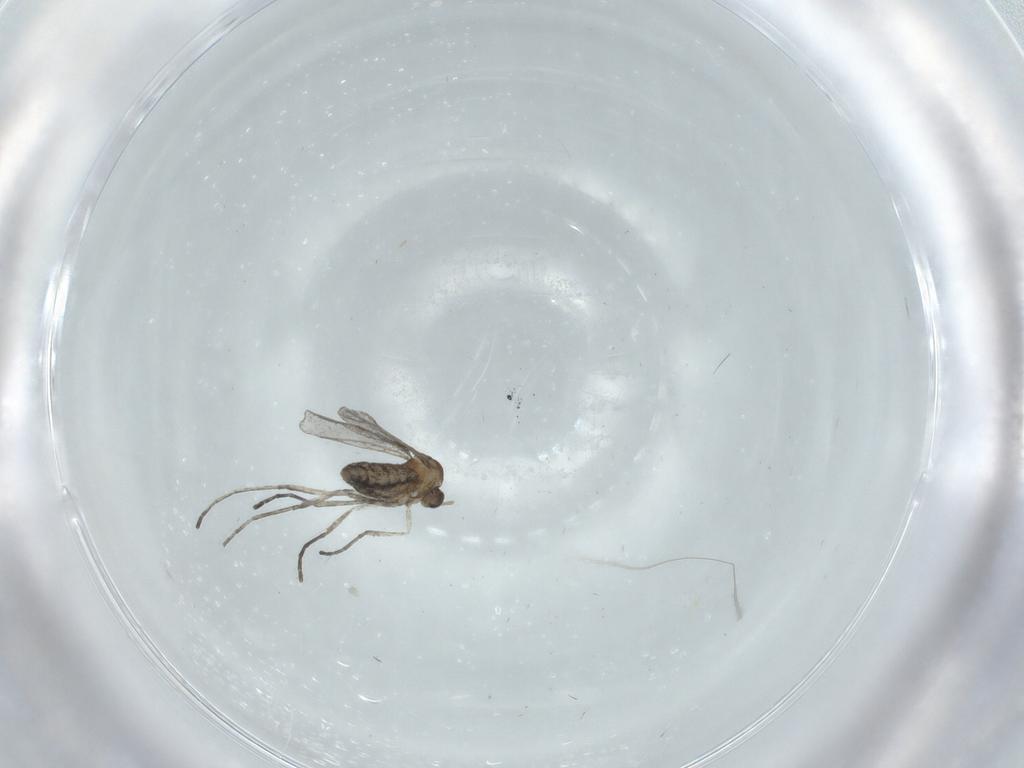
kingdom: Animalia
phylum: Arthropoda
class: Insecta
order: Diptera
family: Cecidomyiidae
